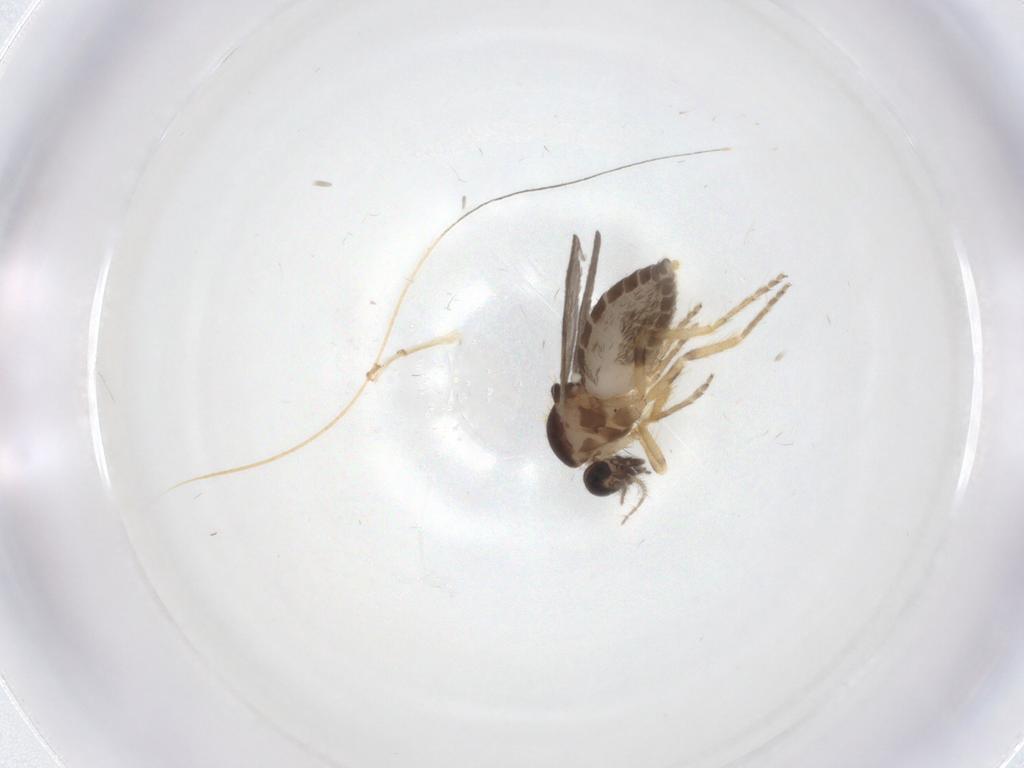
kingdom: Animalia
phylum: Arthropoda
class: Insecta
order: Diptera
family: Ceratopogonidae
